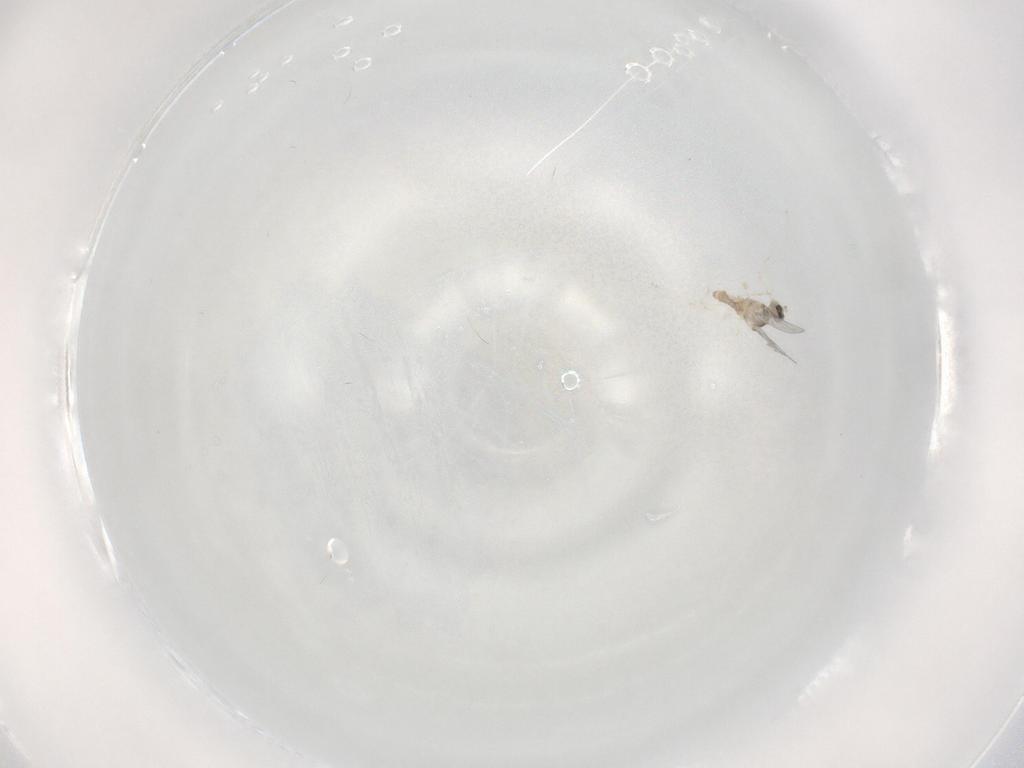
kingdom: Animalia
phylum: Arthropoda
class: Insecta
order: Diptera
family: Cecidomyiidae
